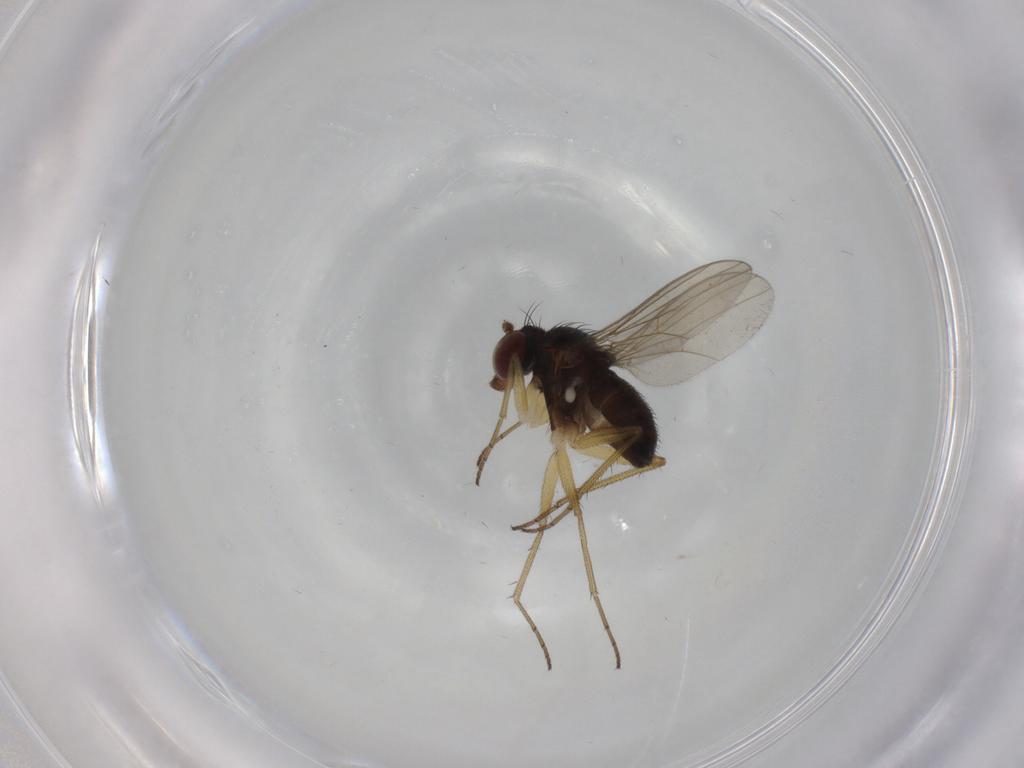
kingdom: Animalia
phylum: Arthropoda
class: Insecta
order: Diptera
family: Dolichopodidae
